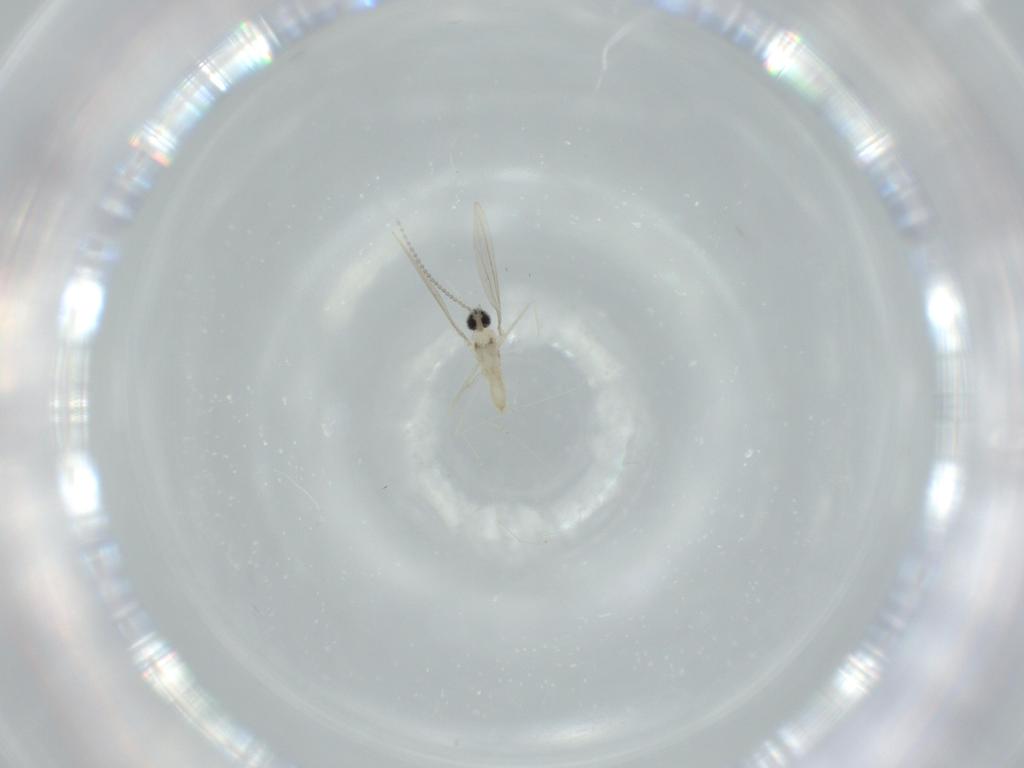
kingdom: Animalia
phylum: Arthropoda
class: Insecta
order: Diptera
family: Cecidomyiidae
